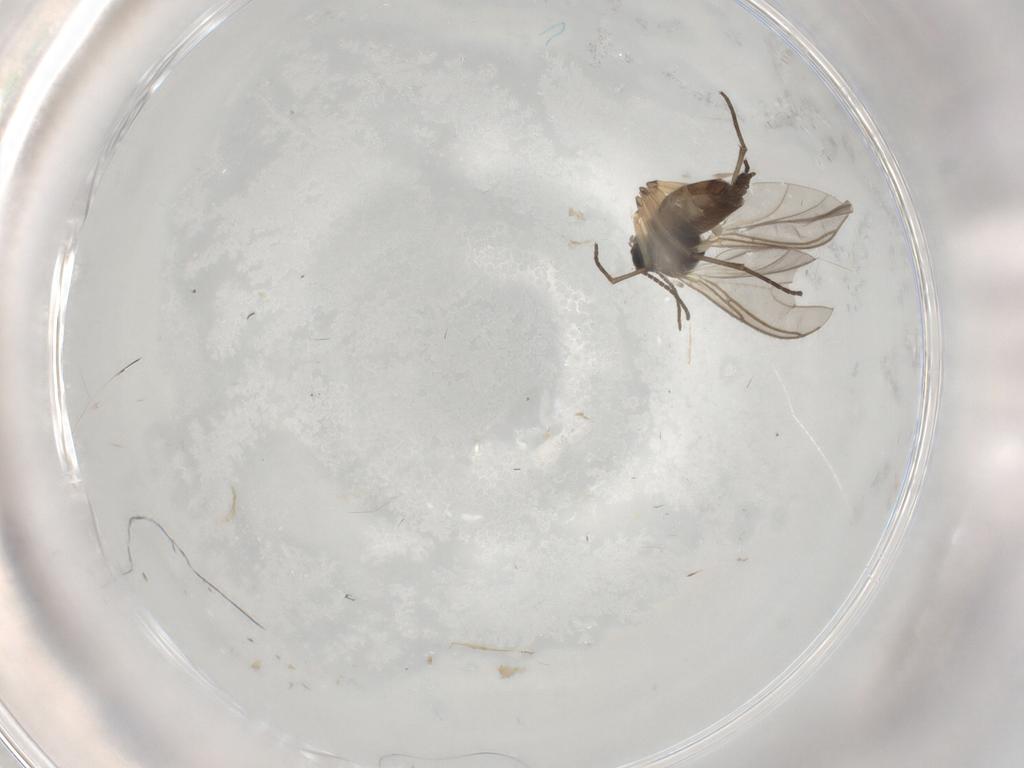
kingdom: Animalia
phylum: Arthropoda
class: Insecta
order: Diptera
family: Sciaridae
